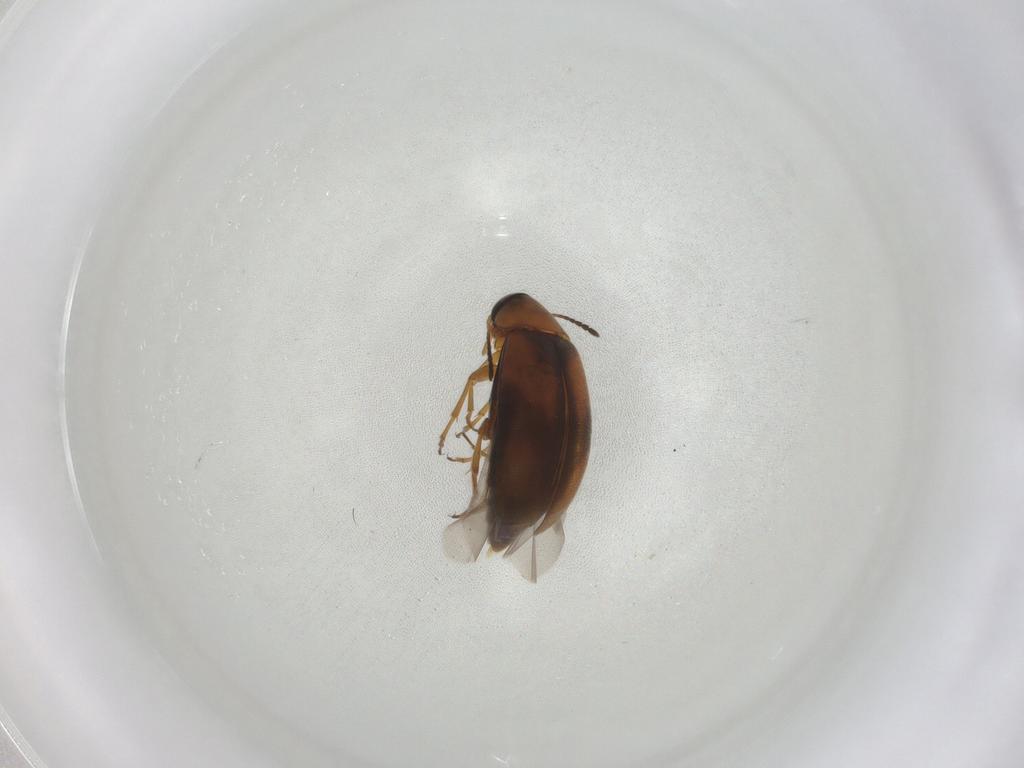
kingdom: Animalia
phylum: Arthropoda
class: Insecta
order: Coleoptera
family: Scraptiidae
